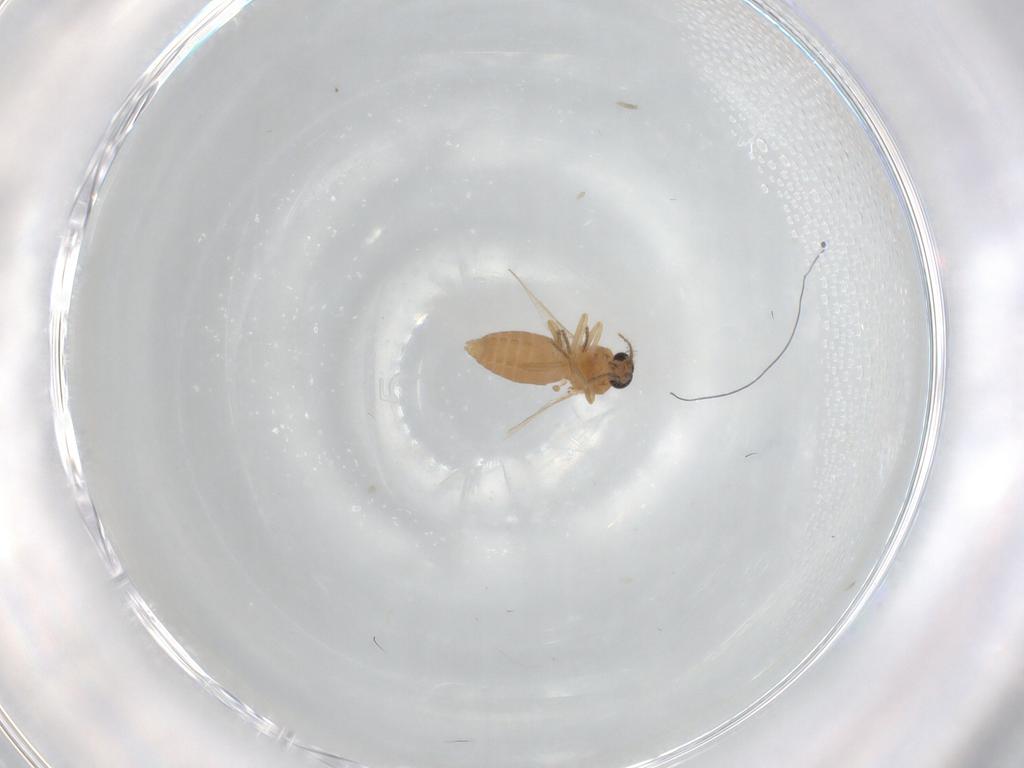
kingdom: Animalia
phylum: Arthropoda
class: Insecta
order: Diptera
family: Ceratopogonidae
